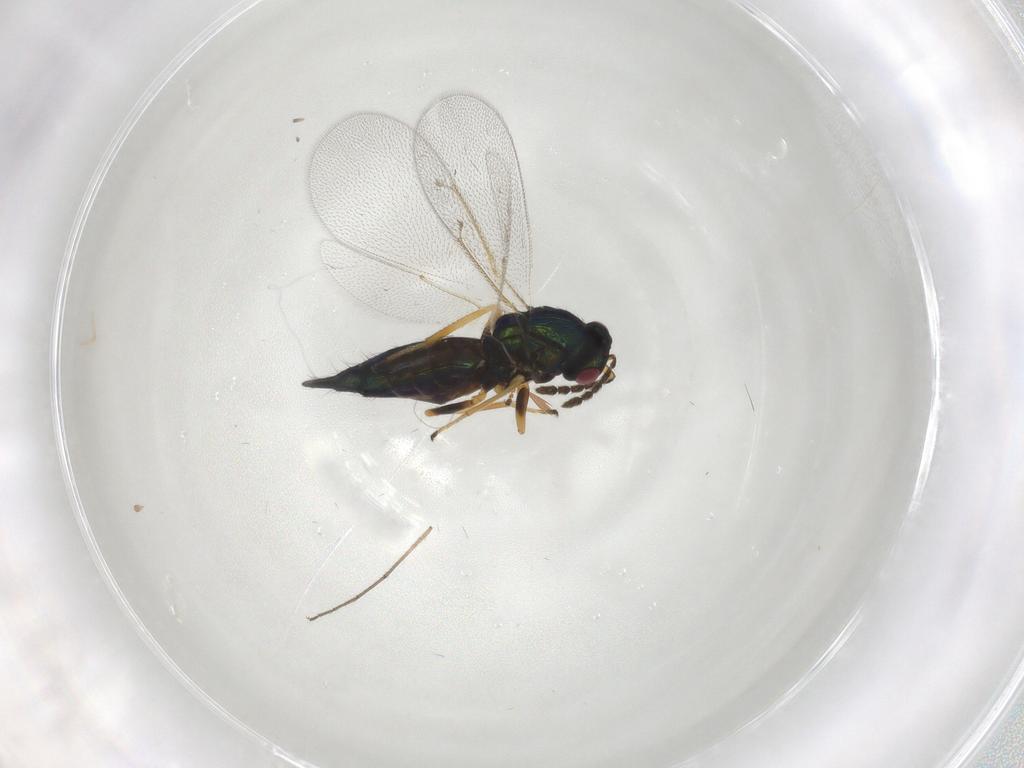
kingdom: Animalia
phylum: Arthropoda
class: Insecta
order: Hymenoptera
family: Eulophidae
